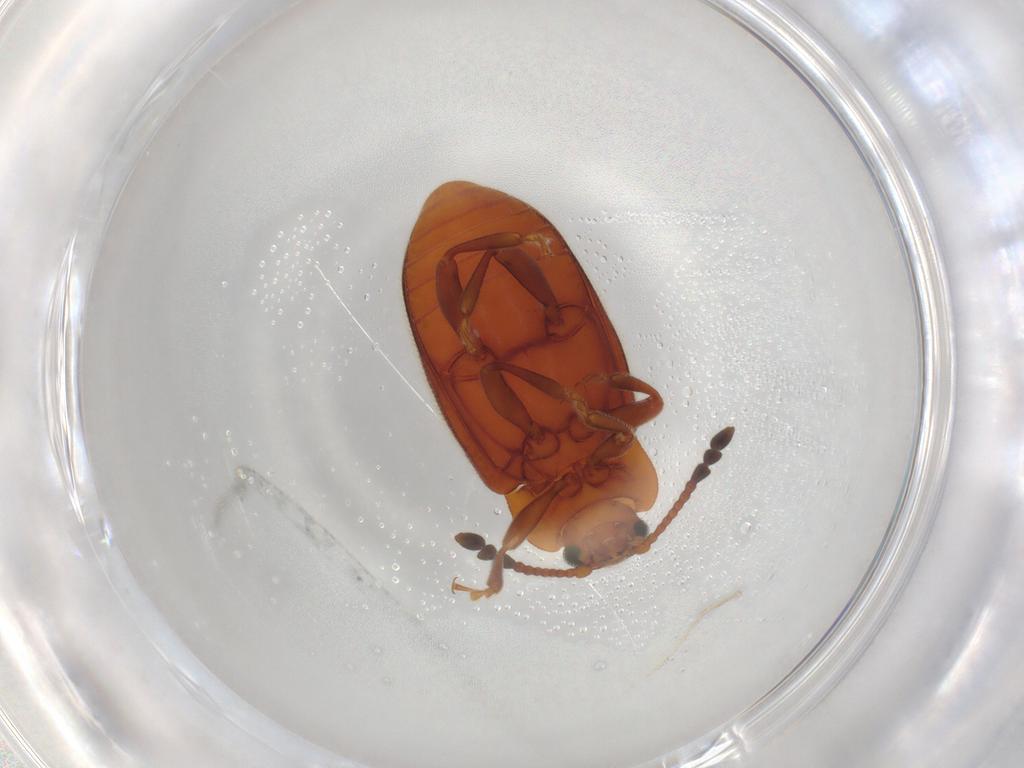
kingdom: Animalia
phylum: Arthropoda
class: Insecta
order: Coleoptera
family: Endomychidae
